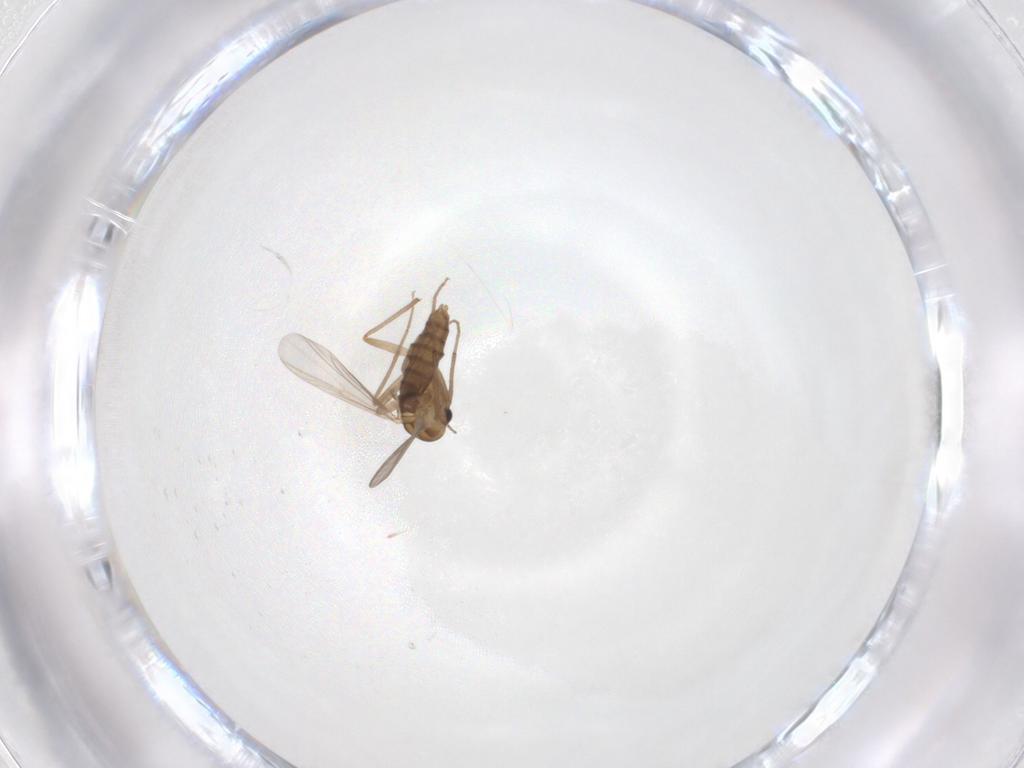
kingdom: Animalia
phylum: Arthropoda
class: Insecta
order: Diptera
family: Chironomidae
